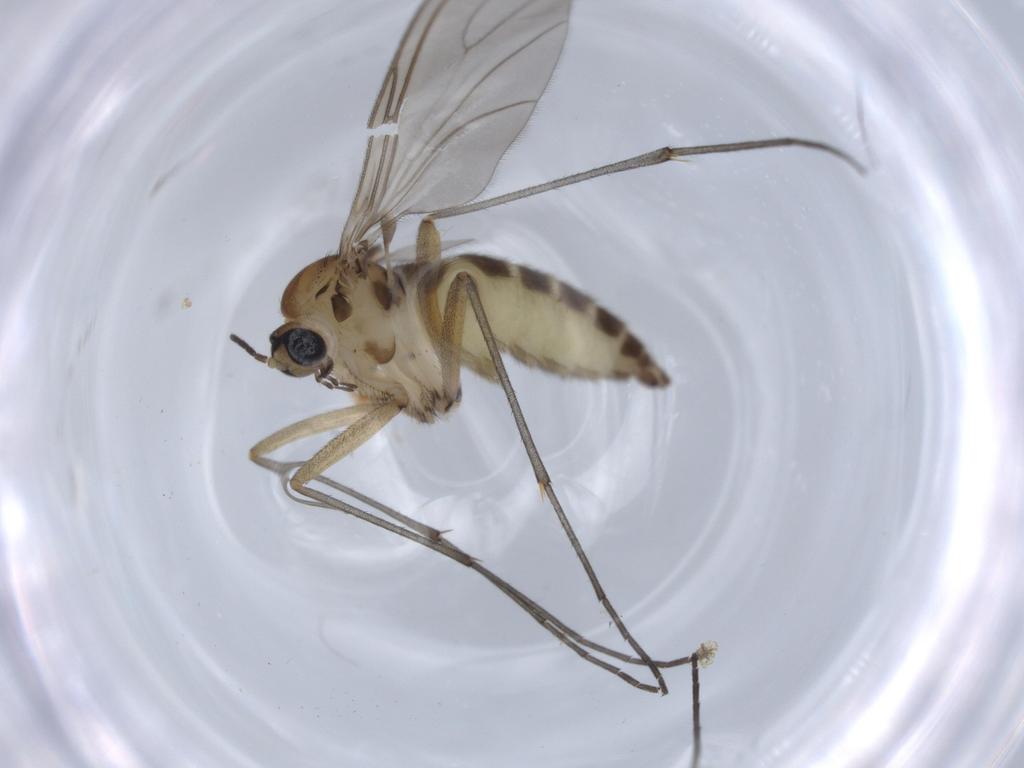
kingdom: Animalia
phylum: Arthropoda
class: Insecta
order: Diptera
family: Sciaridae
